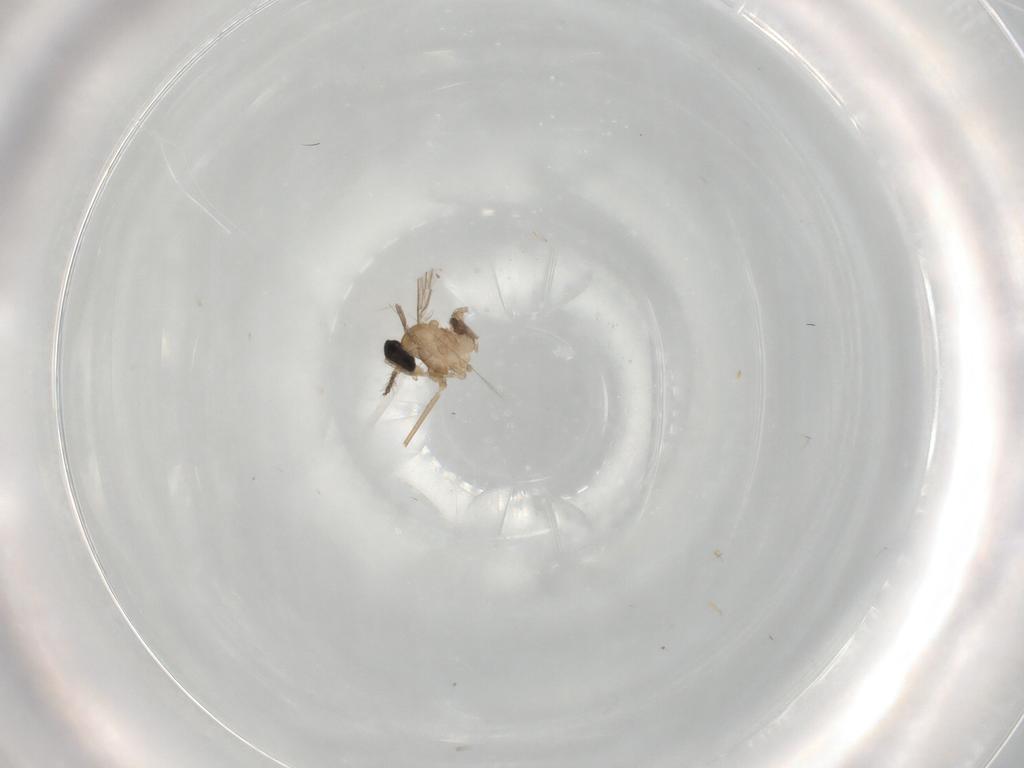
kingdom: Animalia
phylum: Arthropoda
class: Insecta
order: Diptera
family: Cecidomyiidae
